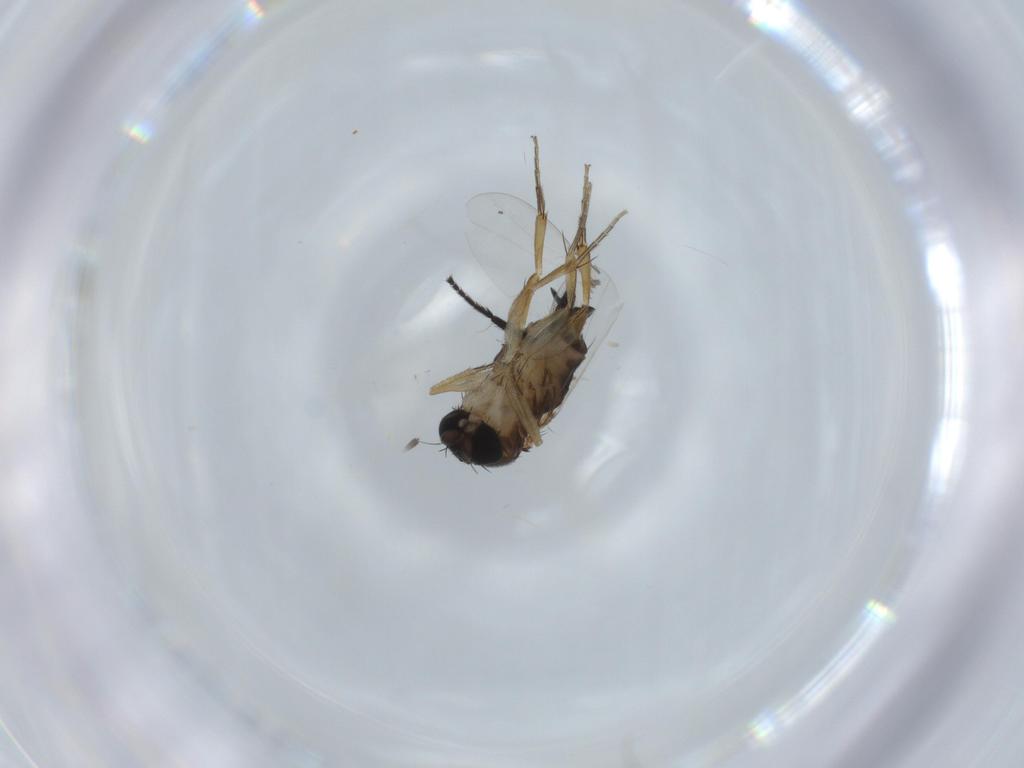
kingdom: Animalia
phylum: Arthropoda
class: Insecta
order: Diptera
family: Phoridae
